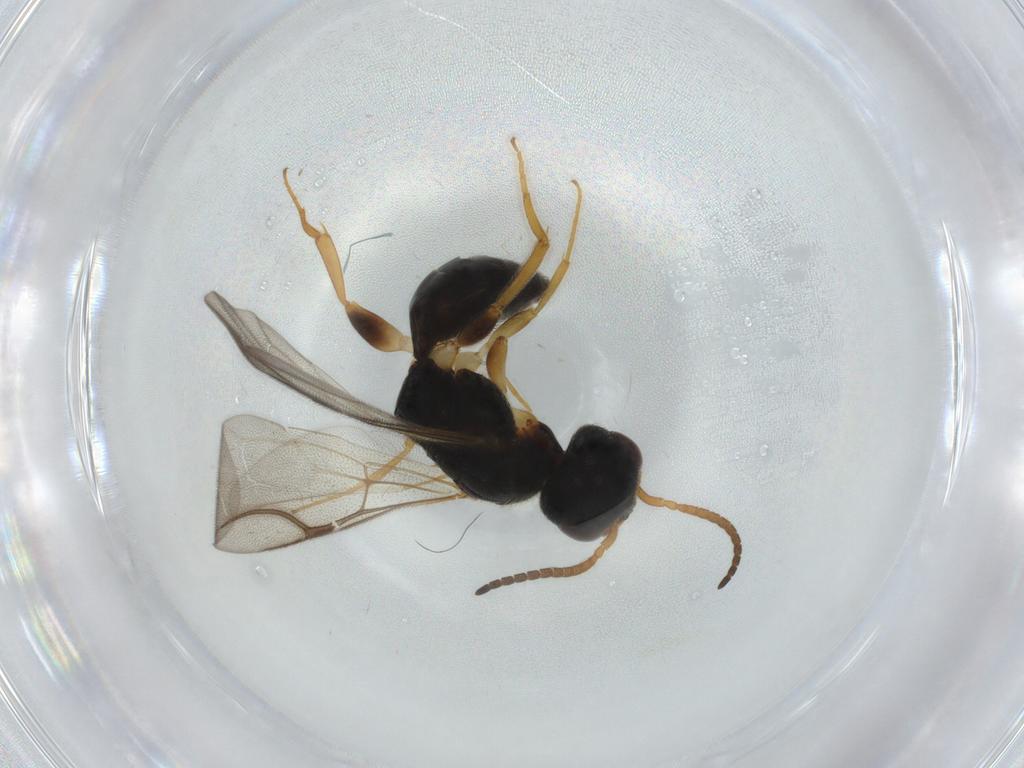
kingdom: Animalia
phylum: Arthropoda
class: Insecta
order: Hymenoptera
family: Bethylidae
